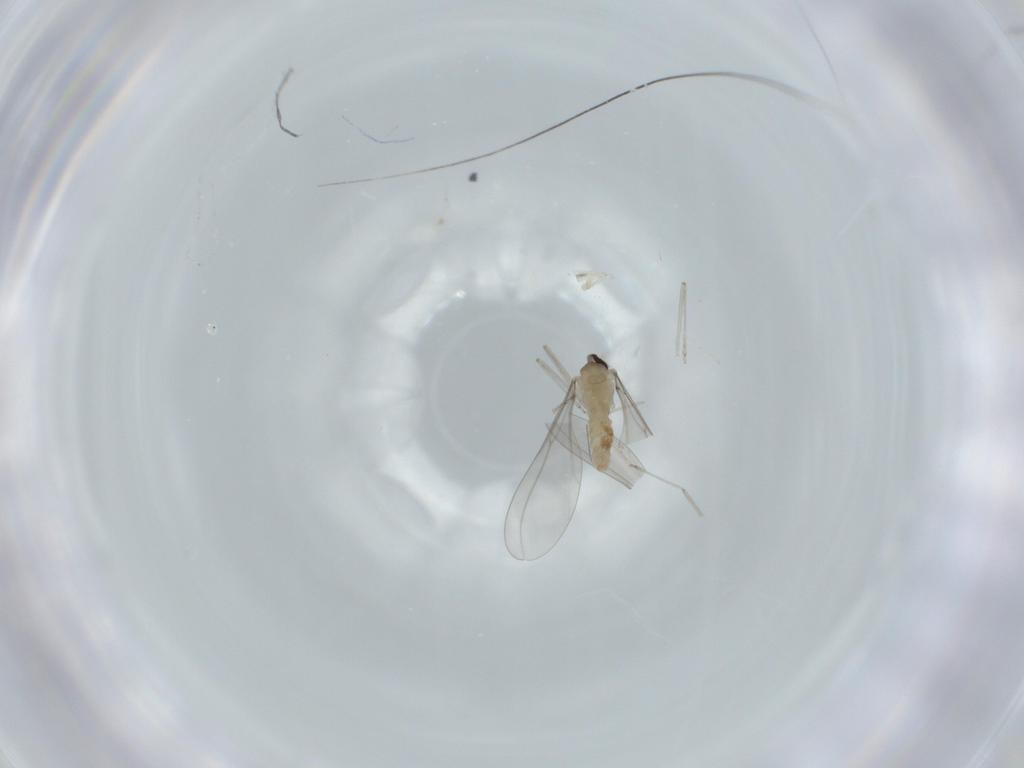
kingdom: Animalia
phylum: Arthropoda
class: Insecta
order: Diptera
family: Cecidomyiidae
